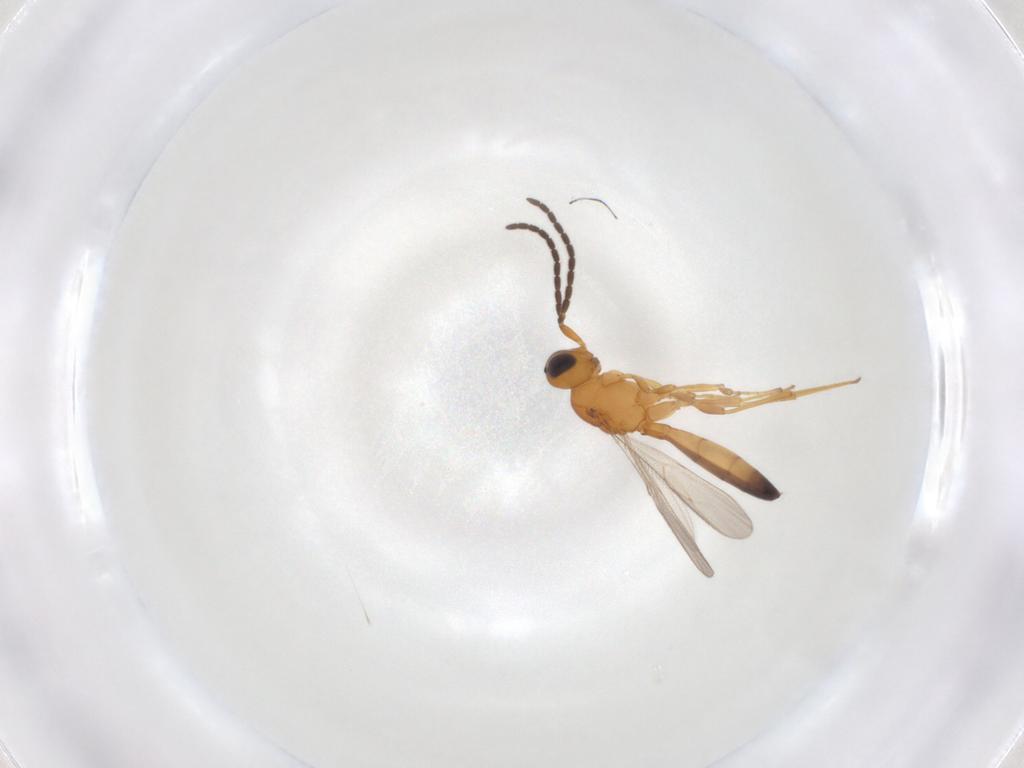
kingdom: Animalia
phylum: Arthropoda
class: Insecta
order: Hymenoptera
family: Scelionidae
